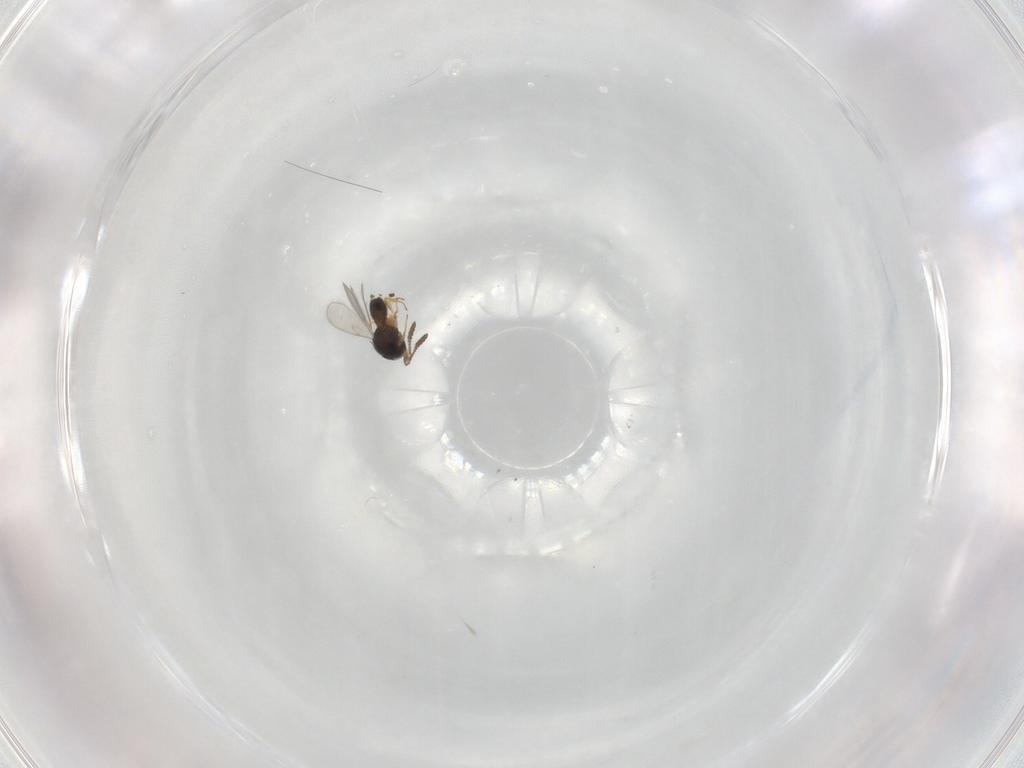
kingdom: Animalia
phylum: Arthropoda
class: Insecta
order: Hymenoptera
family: Scelionidae
